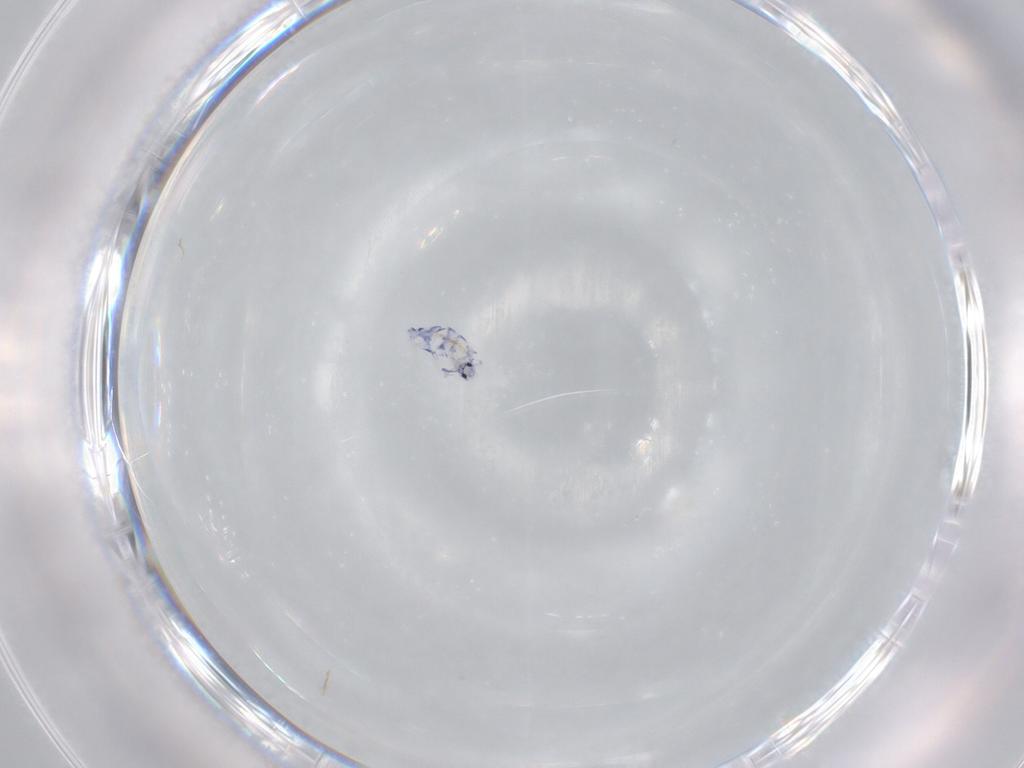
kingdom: Animalia
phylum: Arthropoda
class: Collembola
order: Entomobryomorpha
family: Entomobryidae
